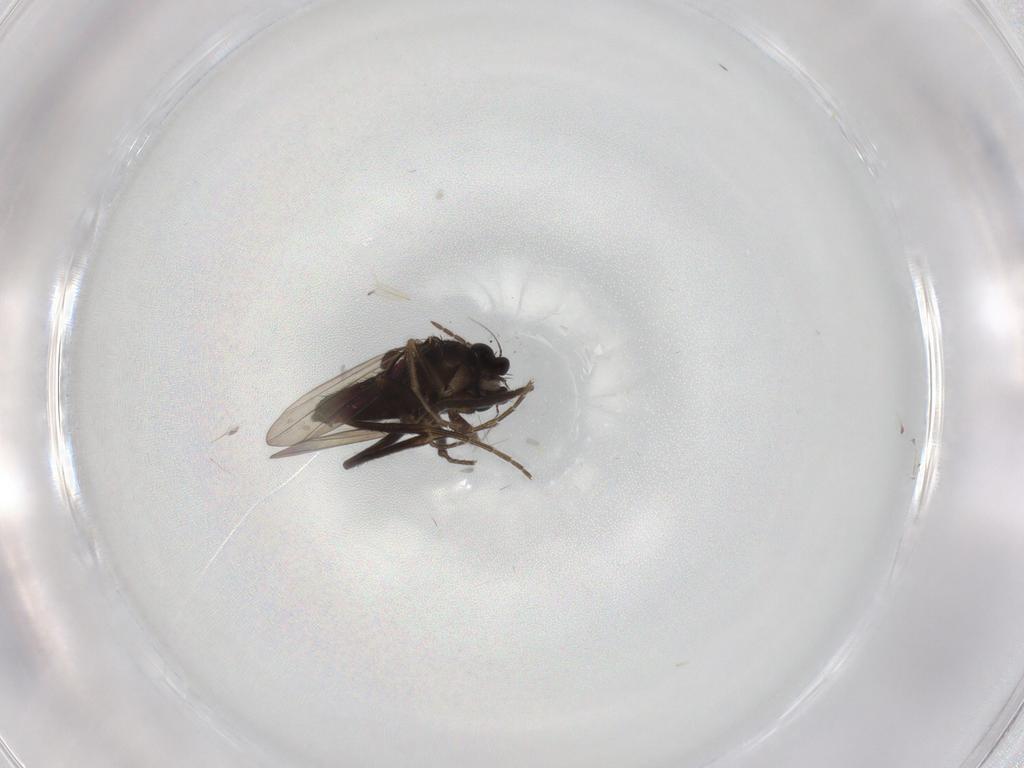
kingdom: Animalia
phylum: Arthropoda
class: Insecta
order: Diptera
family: Phoridae
